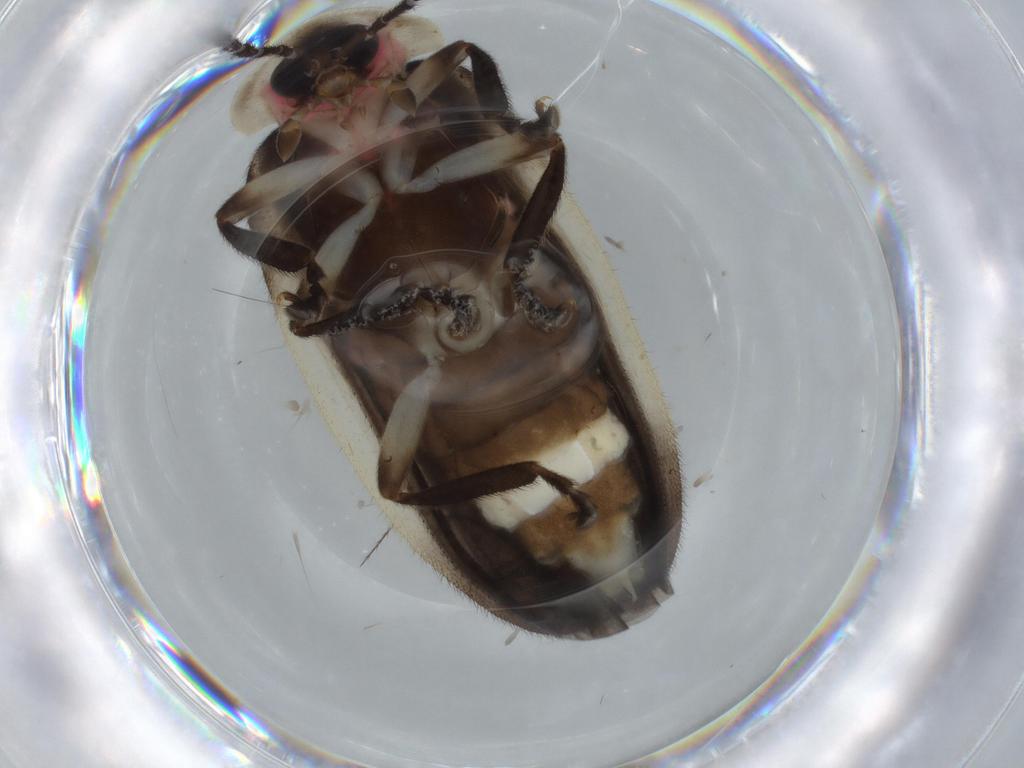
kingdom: Animalia
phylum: Arthropoda
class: Insecta
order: Coleoptera
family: Lampyridae
